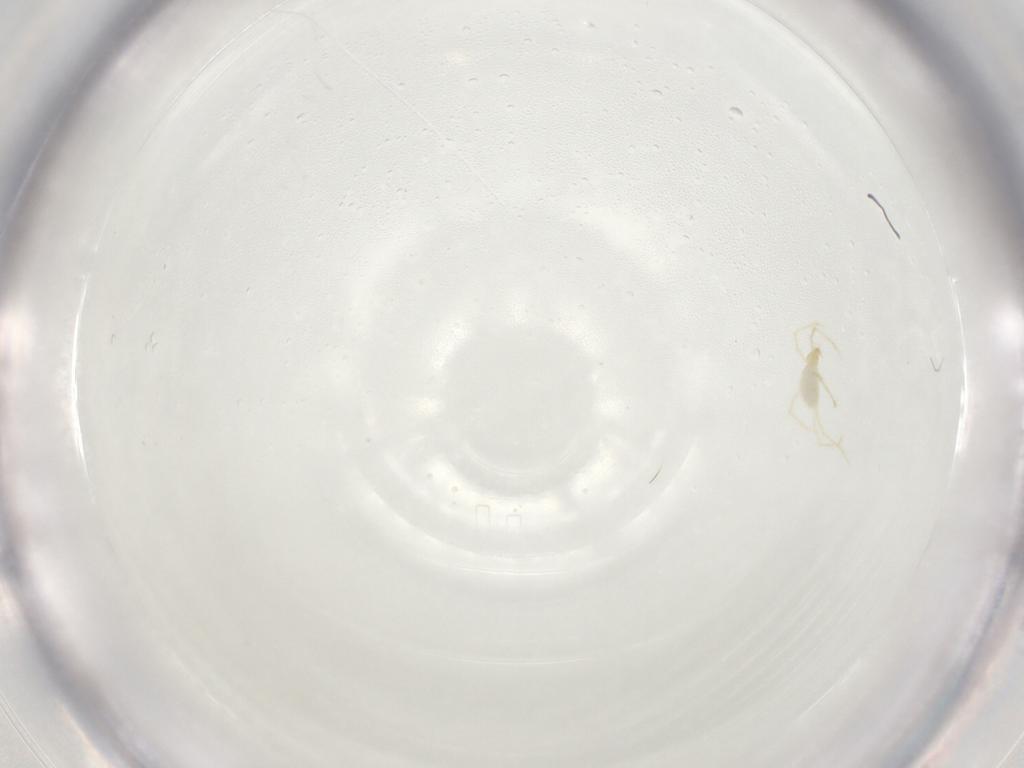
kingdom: Animalia
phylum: Arthropoda
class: Arachnida
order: Trombidiformes
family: Erythraeidae
